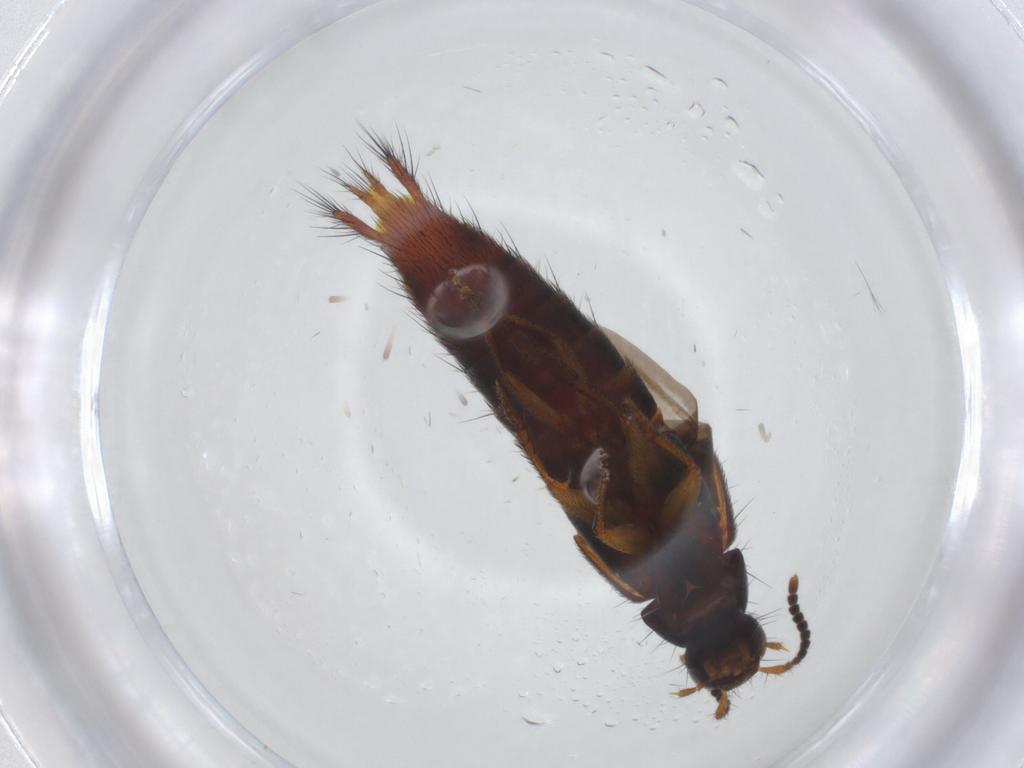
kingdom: Animalia
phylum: Arthropoda
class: Insecta
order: Coleoptera
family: Staphylinidae
